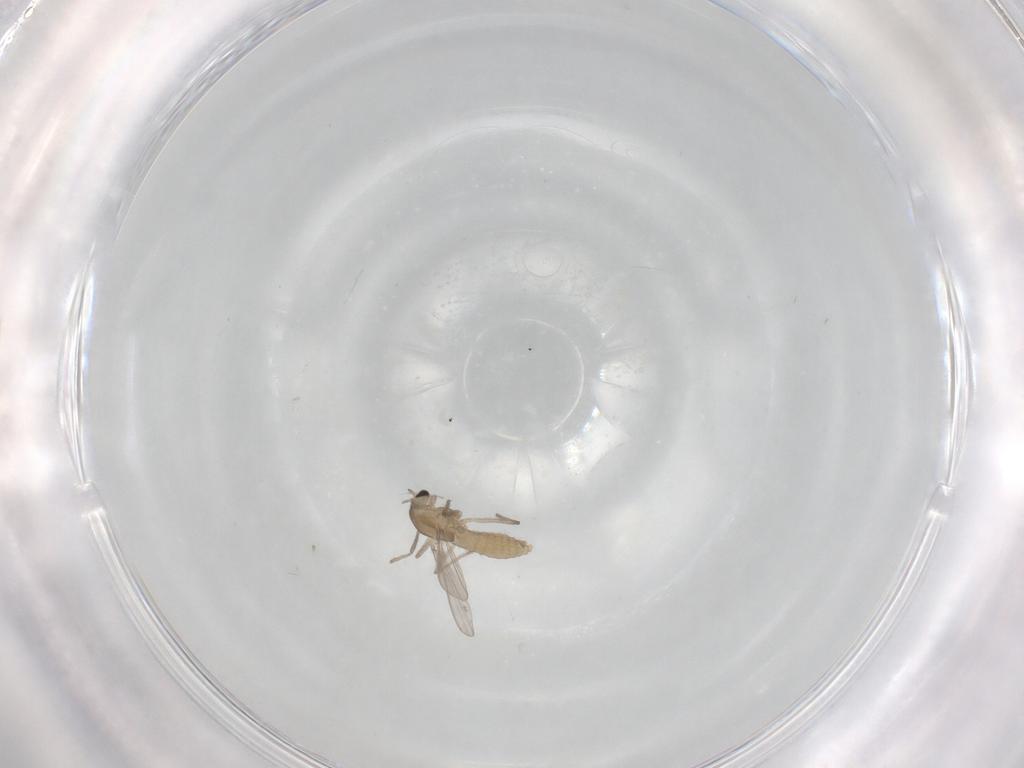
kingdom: Animalia
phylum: Arthropoda
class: Insecta
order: Diptera
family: Chironomidae
